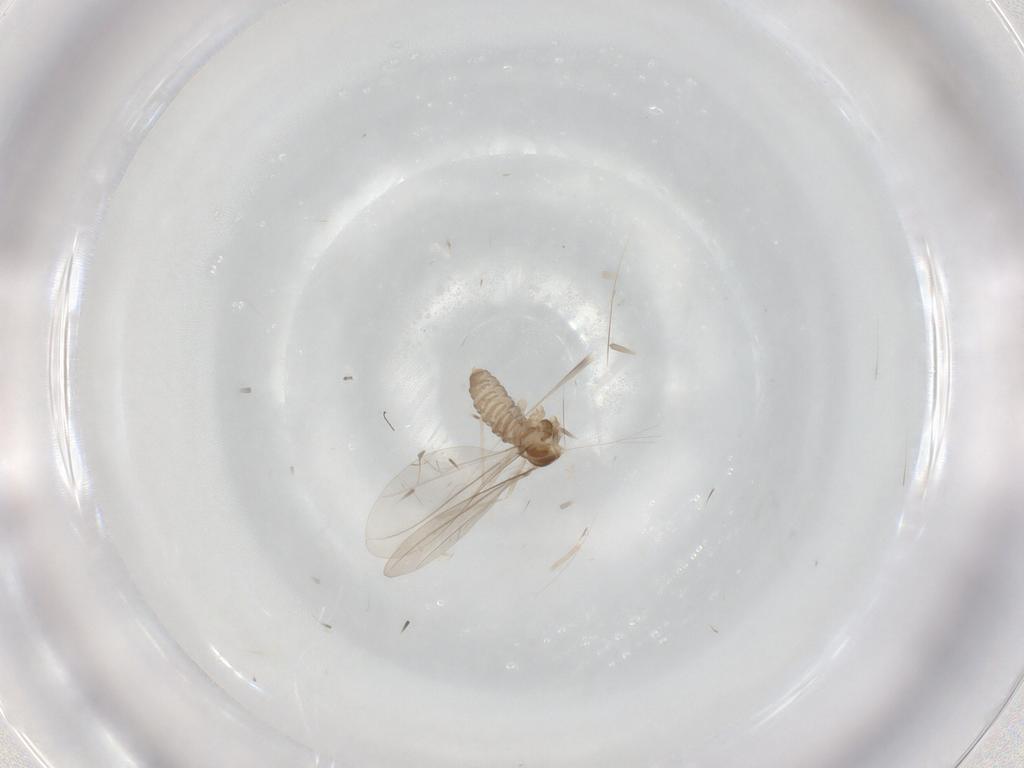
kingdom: Animalia
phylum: Arthropoda
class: Insecta
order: Diptera
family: Cecidomyiidae
